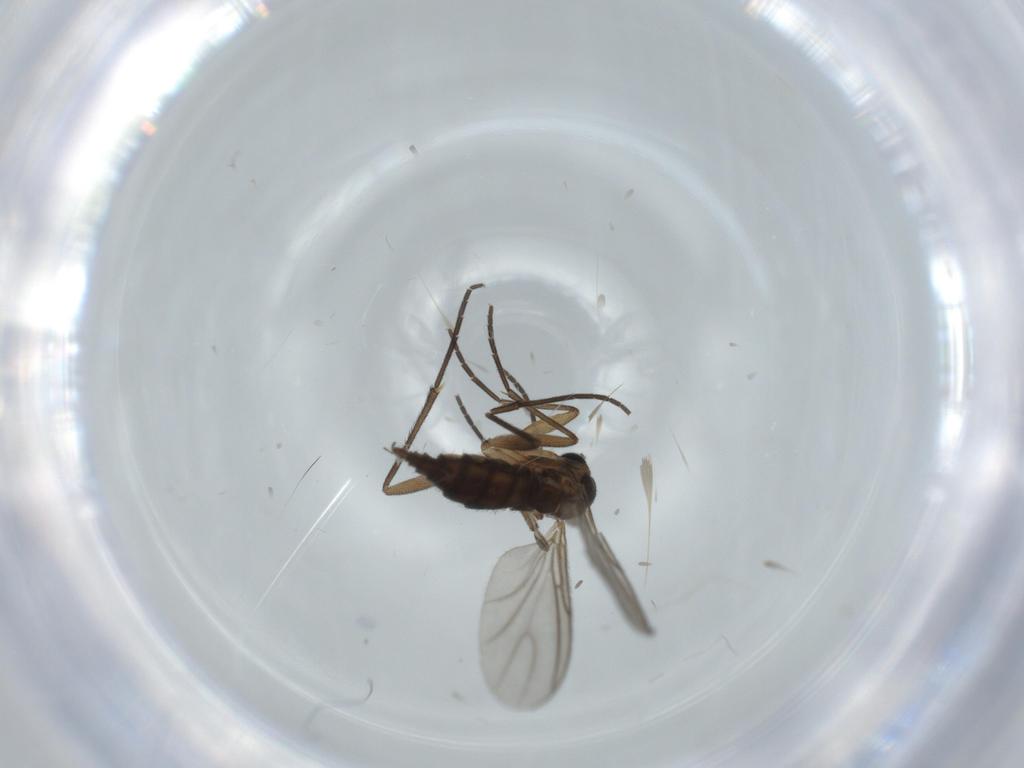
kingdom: Animalia
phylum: Arthropoda
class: Insecta
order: Diptera
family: Sciaridae
